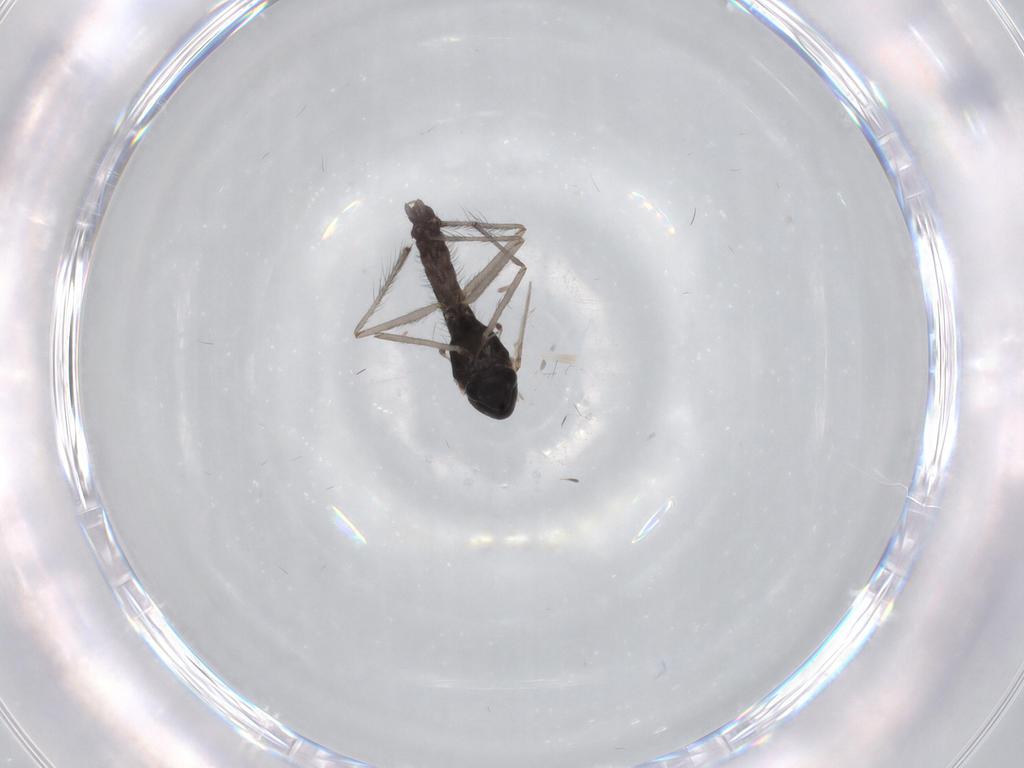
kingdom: Animalia
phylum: Arthropoda
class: Insecta
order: Diptera
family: Chironomidae
